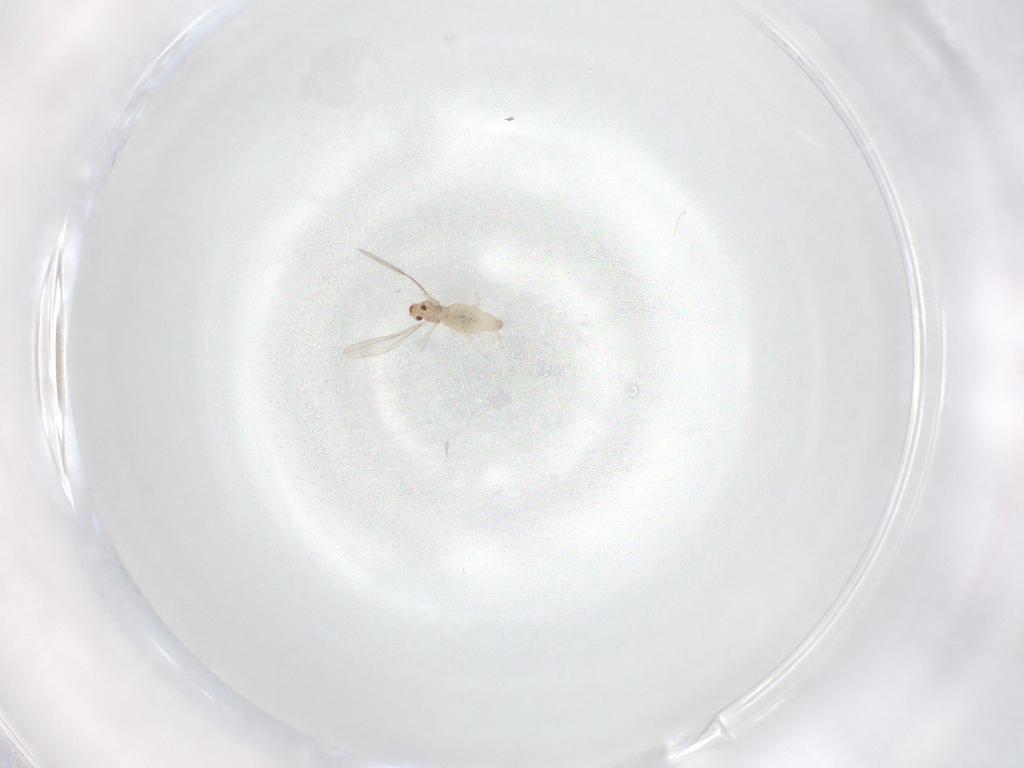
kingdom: Animalia
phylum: Arthropoda
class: Insecta
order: Diptera
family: Cecidomyiidae
